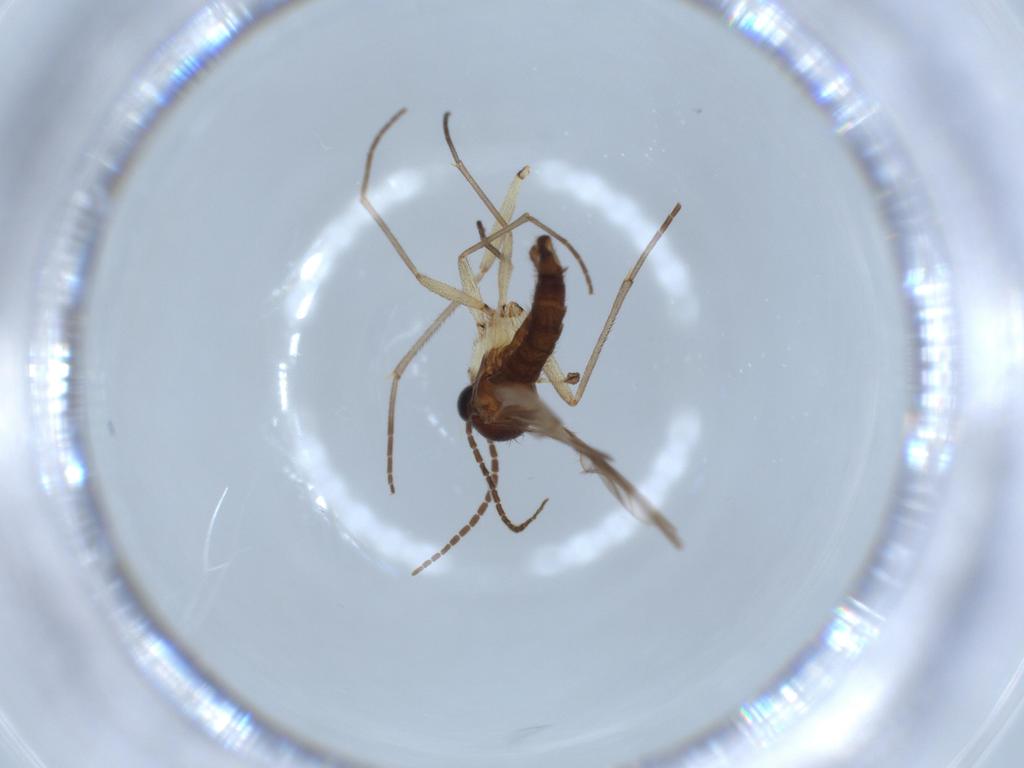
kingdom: Animalia
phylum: Arthropoda
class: Insecta
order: Diptera
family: Sciaridae
